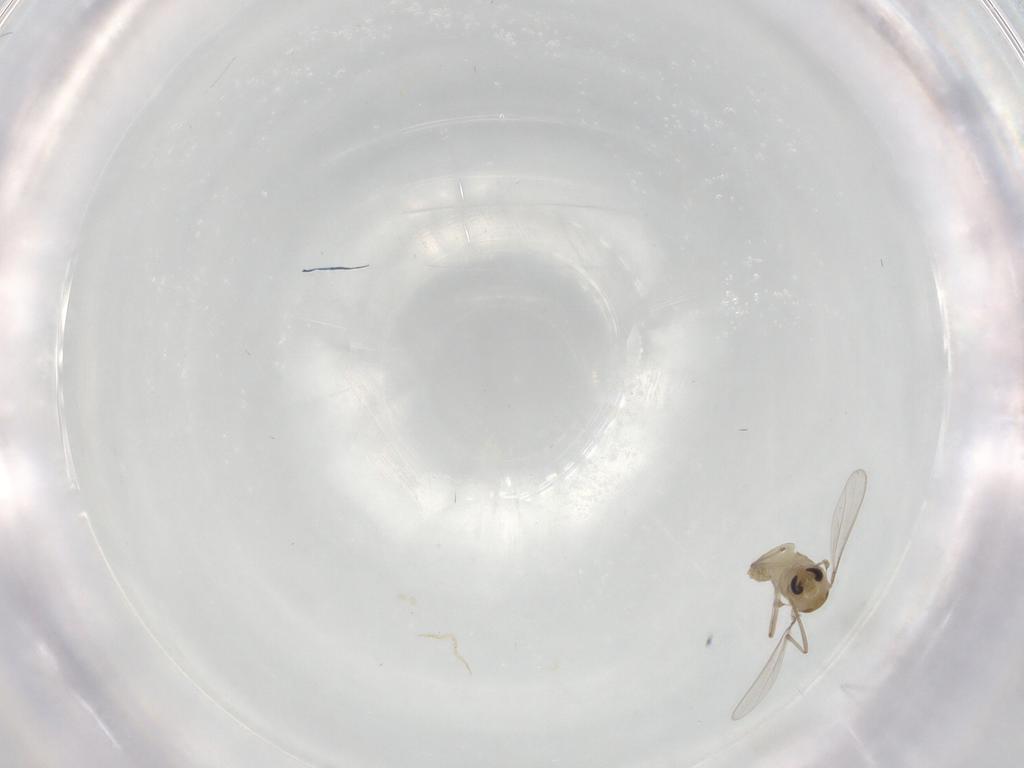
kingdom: Animalia
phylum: Arthropoda
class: Insecta
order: Diptera
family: Chironomidae
